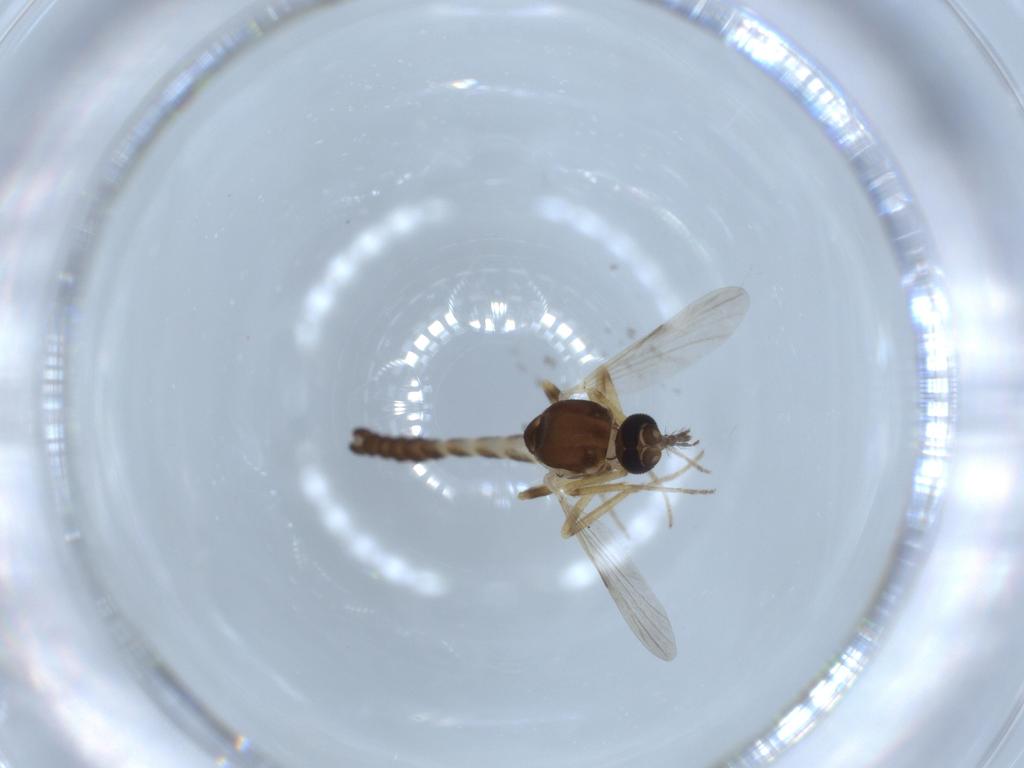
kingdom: Animalia
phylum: Arthropoda
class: Insecta
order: Diptera
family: Ceratopogonidae
